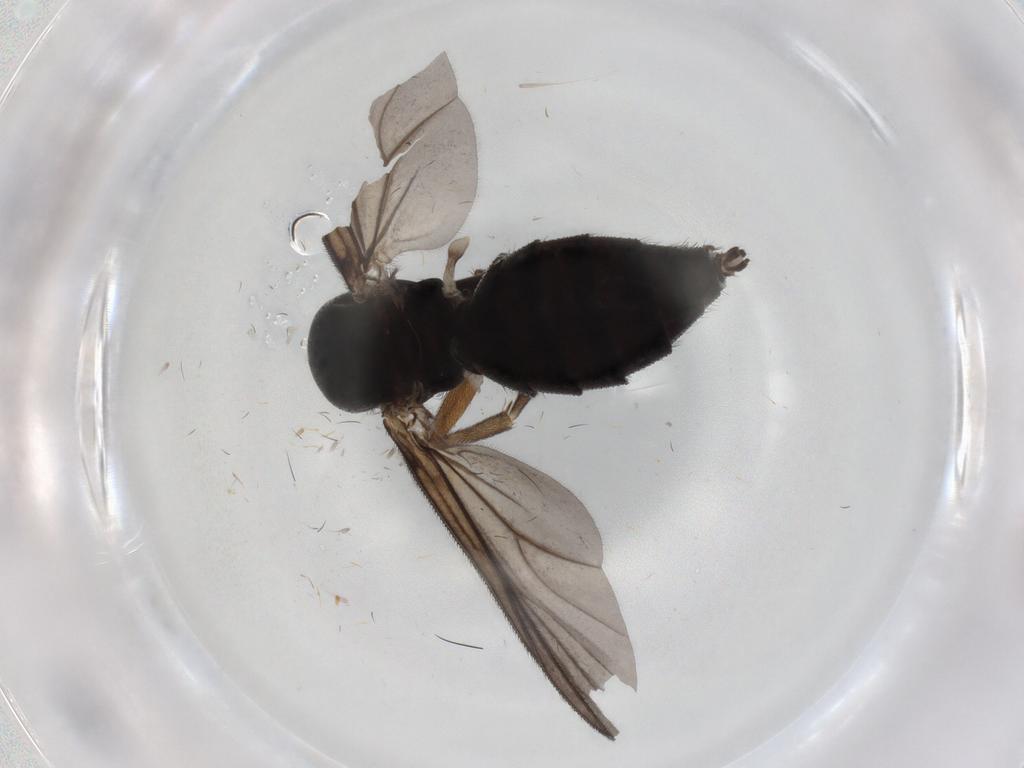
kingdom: Animalia
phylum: Arthropoda
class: Insecta
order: Diptera
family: Mycetophilidae
